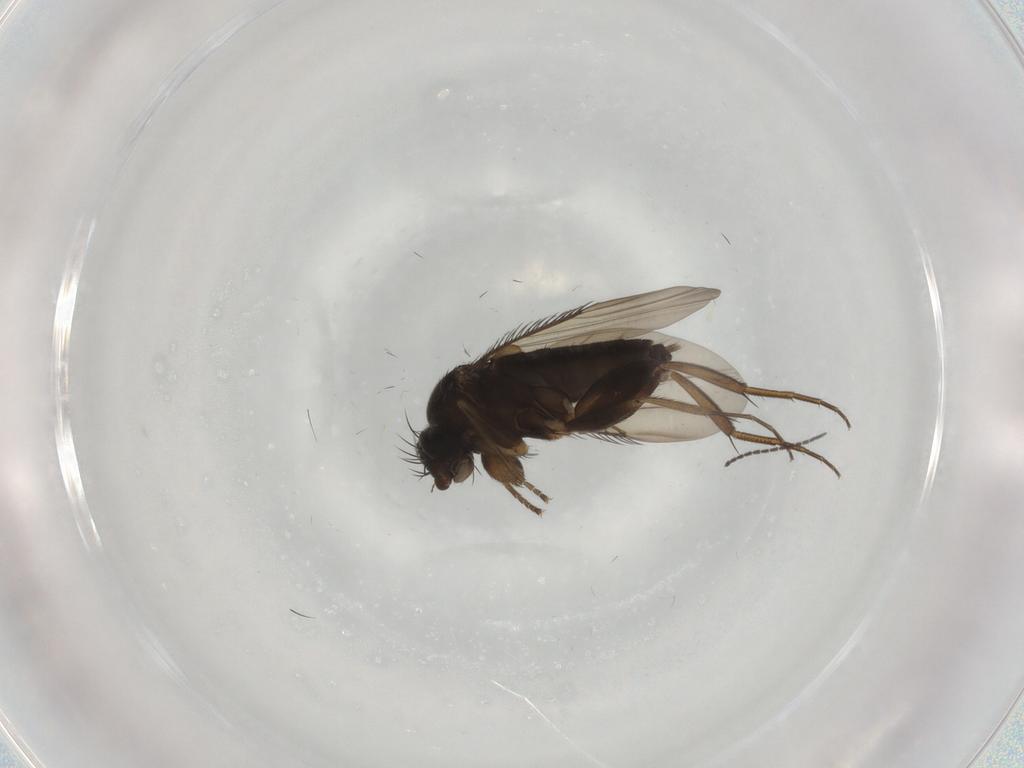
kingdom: Animalia
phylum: Arthropoda
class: Insecta
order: Diptera
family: Phoridae
